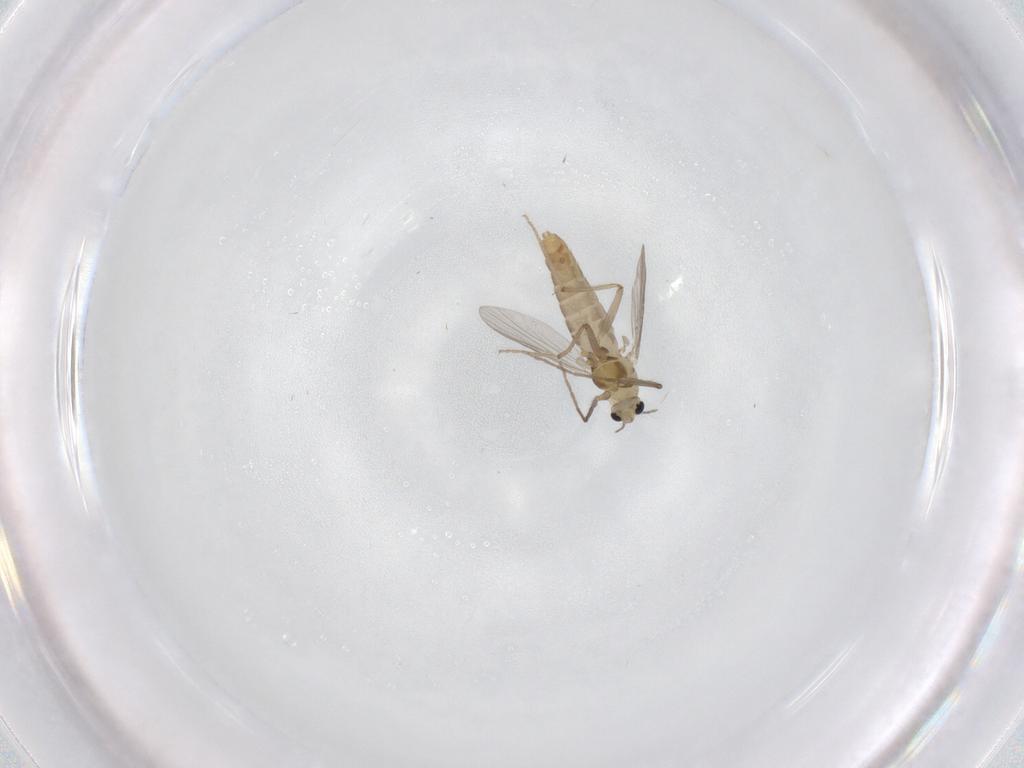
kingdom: Animalia
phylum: Arthropoda
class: Insecta
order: Diptera
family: Chironomidae
